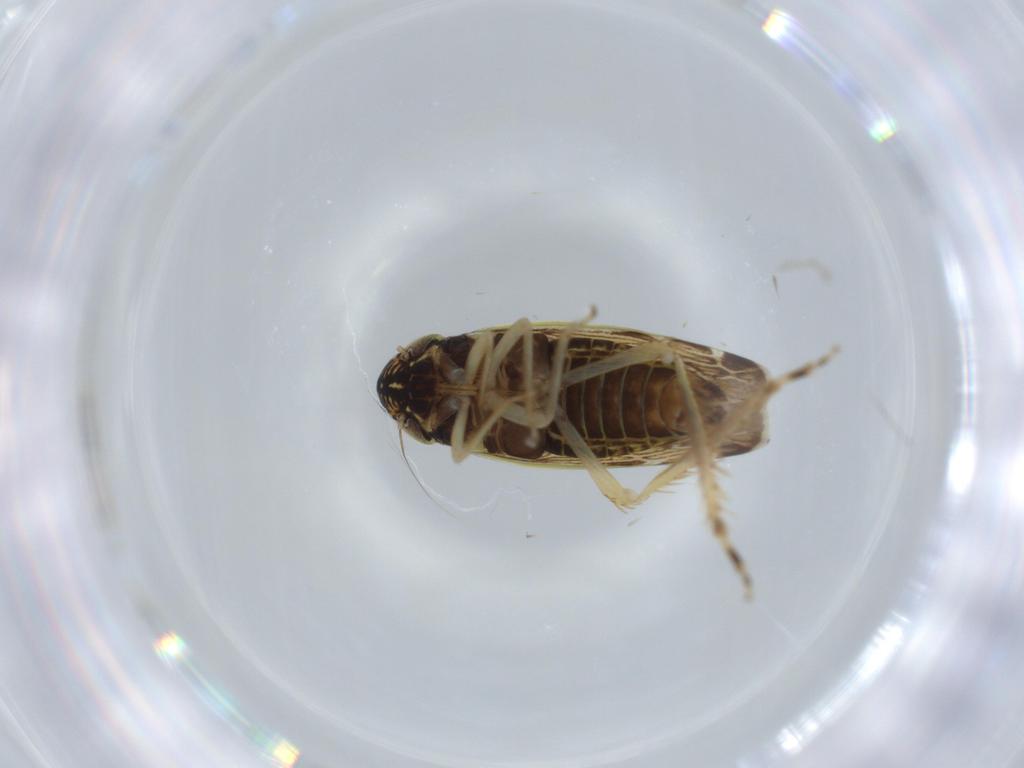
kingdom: Animalia
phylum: Arthropoda
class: Insecta
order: Hemiptera
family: Cicadellidae
